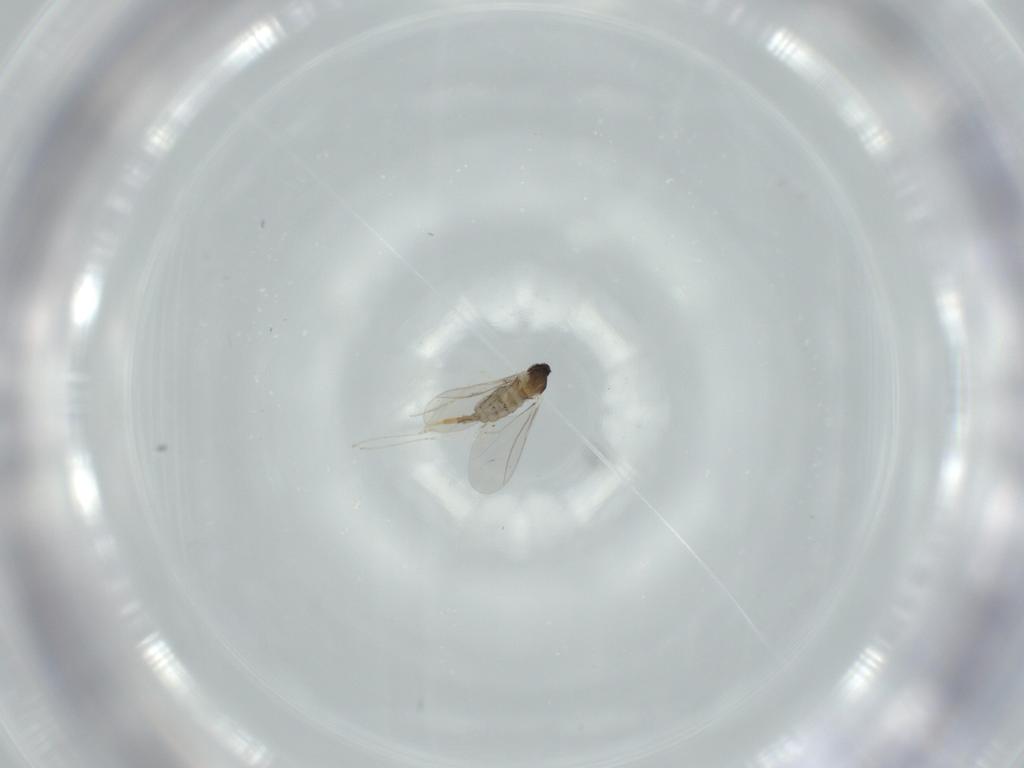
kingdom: Animalia
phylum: Arthropoda
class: Insecta
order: Diptera
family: Cecidomyiidae
